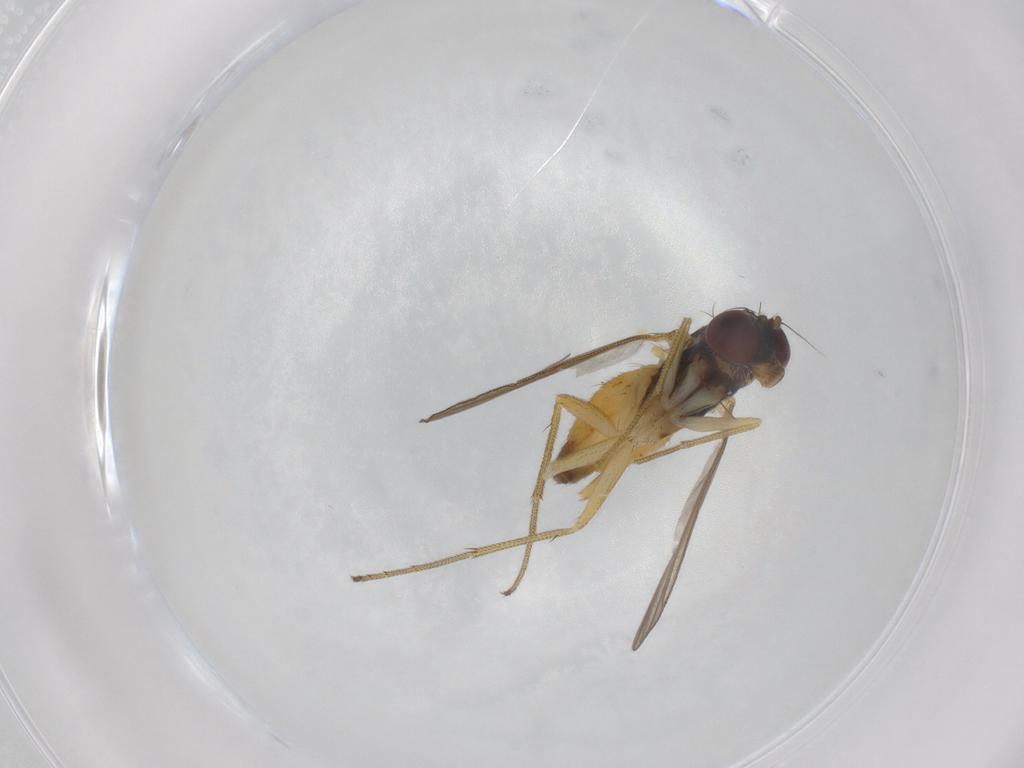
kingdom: Animalia
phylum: Arthropoda
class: Insecta
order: Diptera
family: Dolichopodidae
